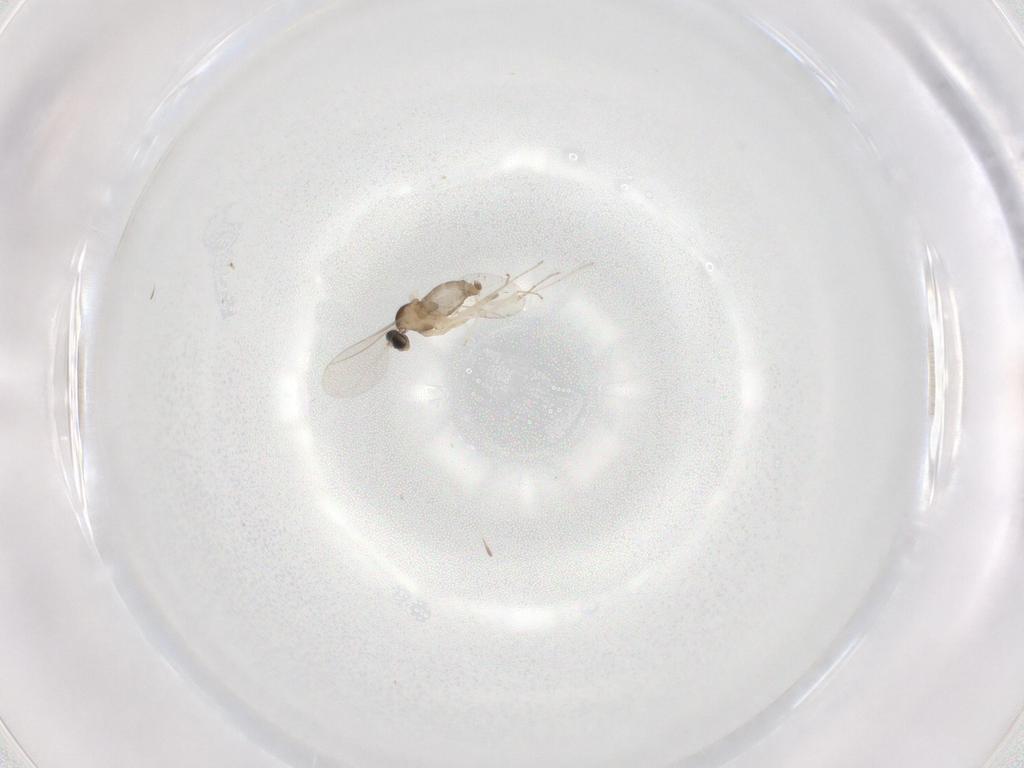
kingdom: Animalia
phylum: Arthropoda
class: Insecta
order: Diptera
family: Cecidomyiidae
